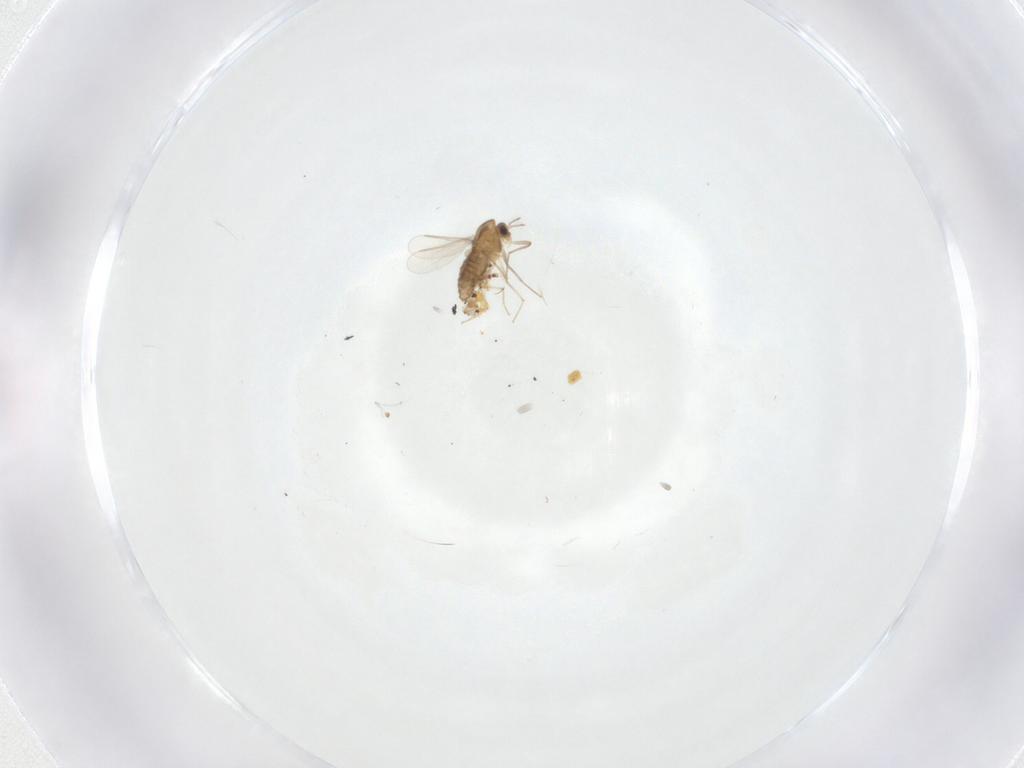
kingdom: Animalia
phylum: Arthropoda
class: Insecta
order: Diptera
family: Chironomidae
